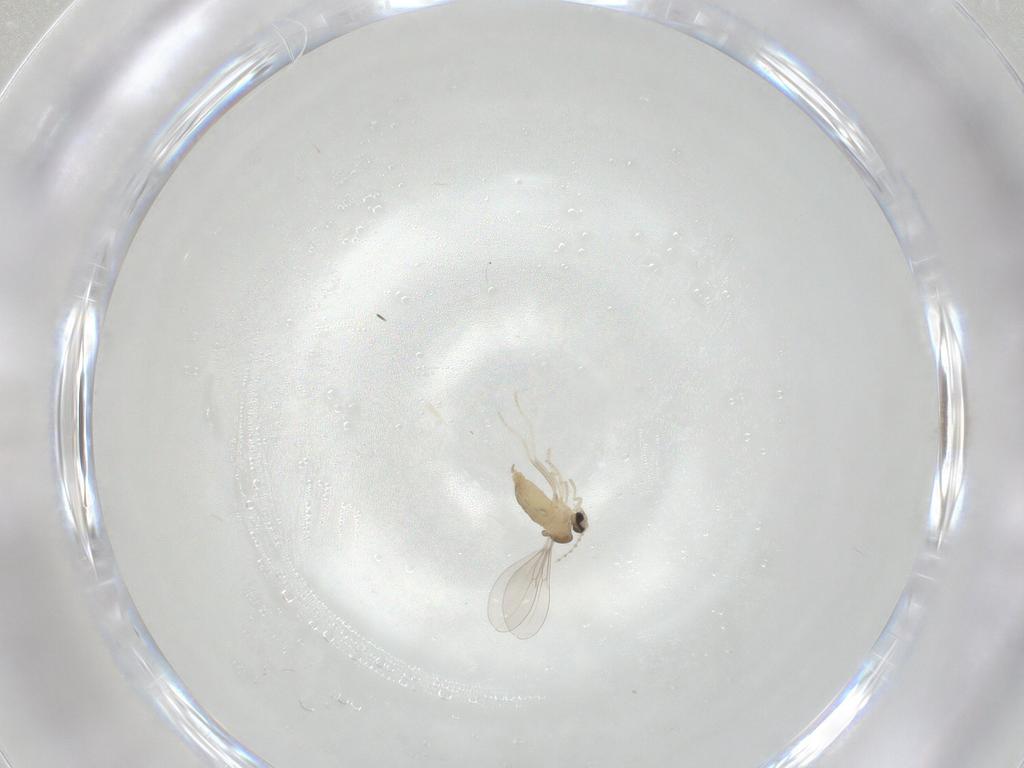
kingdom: Animalia
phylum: Arthropoda
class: Insecta
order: Diptera
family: Cecidomyiidae
